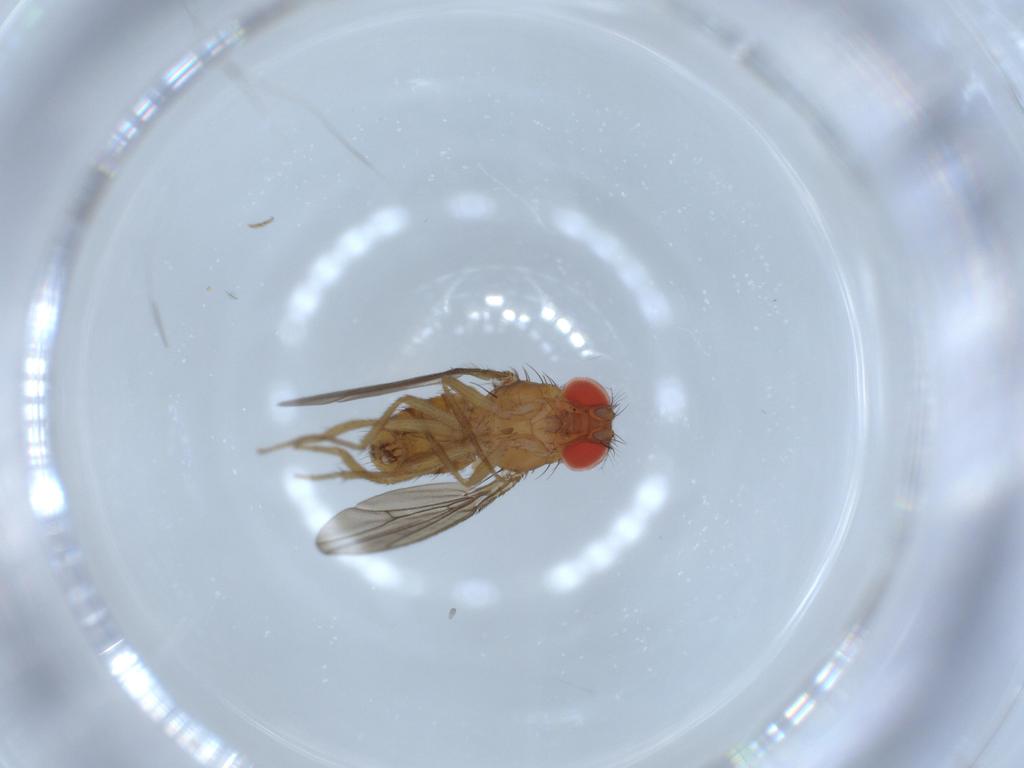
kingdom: Animalia
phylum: Arthropoda
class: Insecta
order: Diptera
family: Drosophilidae
